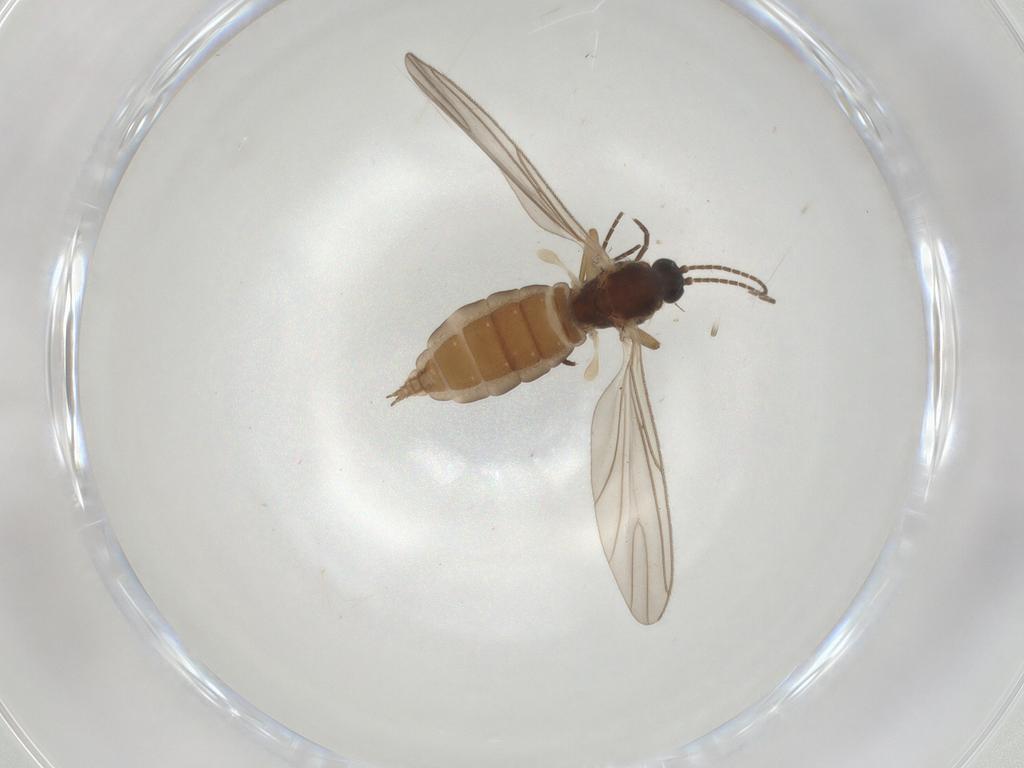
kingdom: Animalia
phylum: Arthropoda
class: Insecta
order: Diptera
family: Sciaridae
